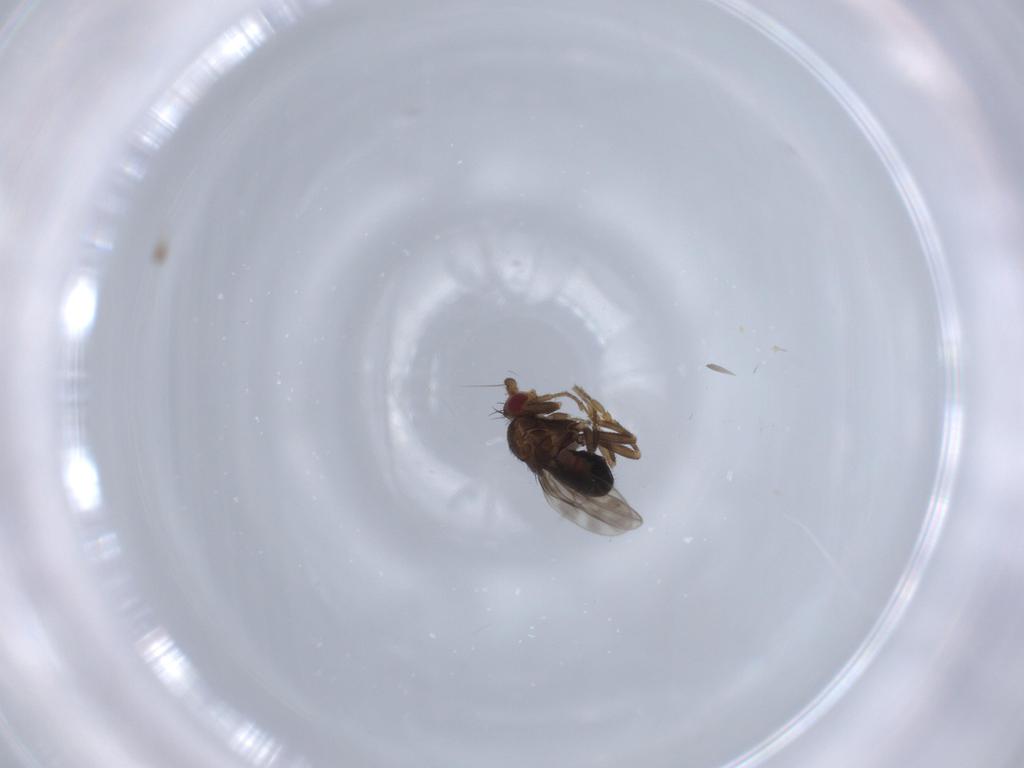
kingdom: Animalia
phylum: Arthropoda
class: Insecta
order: Diptera
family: Sphaeroceridae
